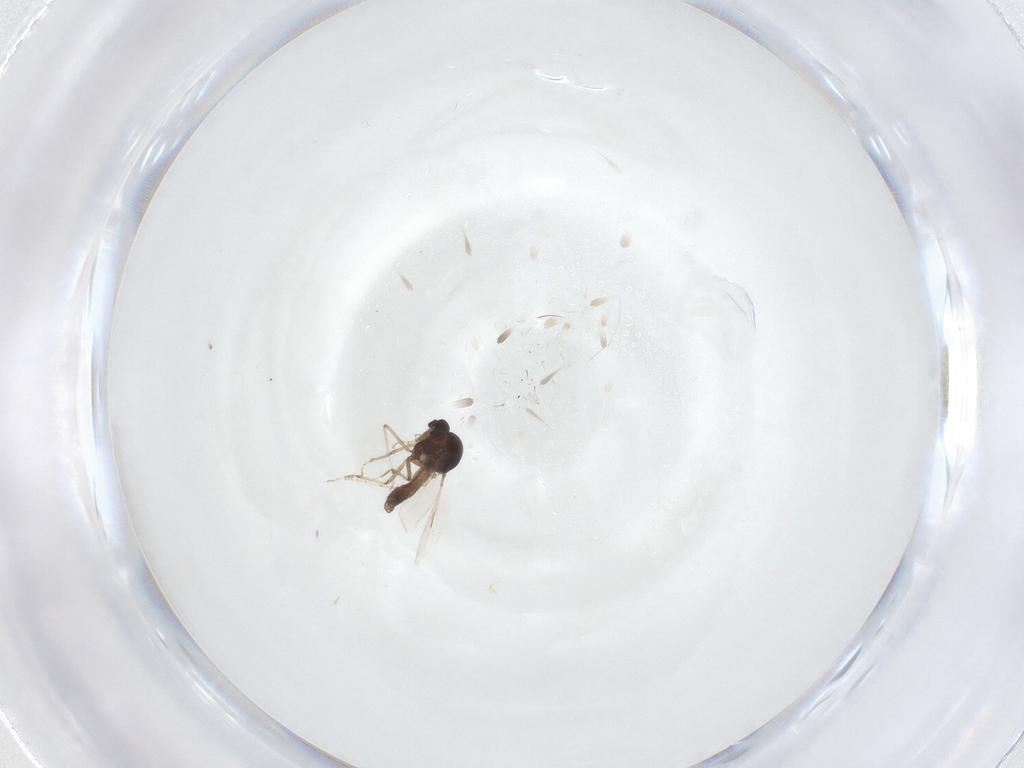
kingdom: Animalia
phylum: Arthropoda
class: Insecta
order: Diptera
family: Ceratopogonidae
